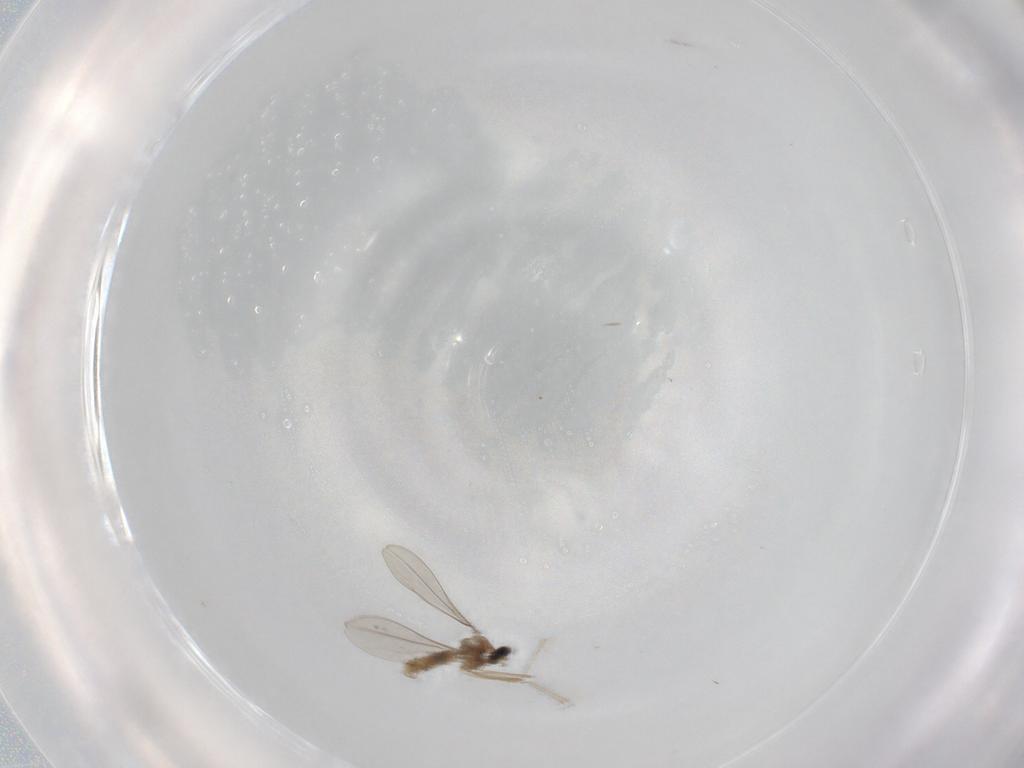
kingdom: Animalia
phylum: Arthropoda
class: Insecta
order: Diptera
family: Cecidomyiidae
